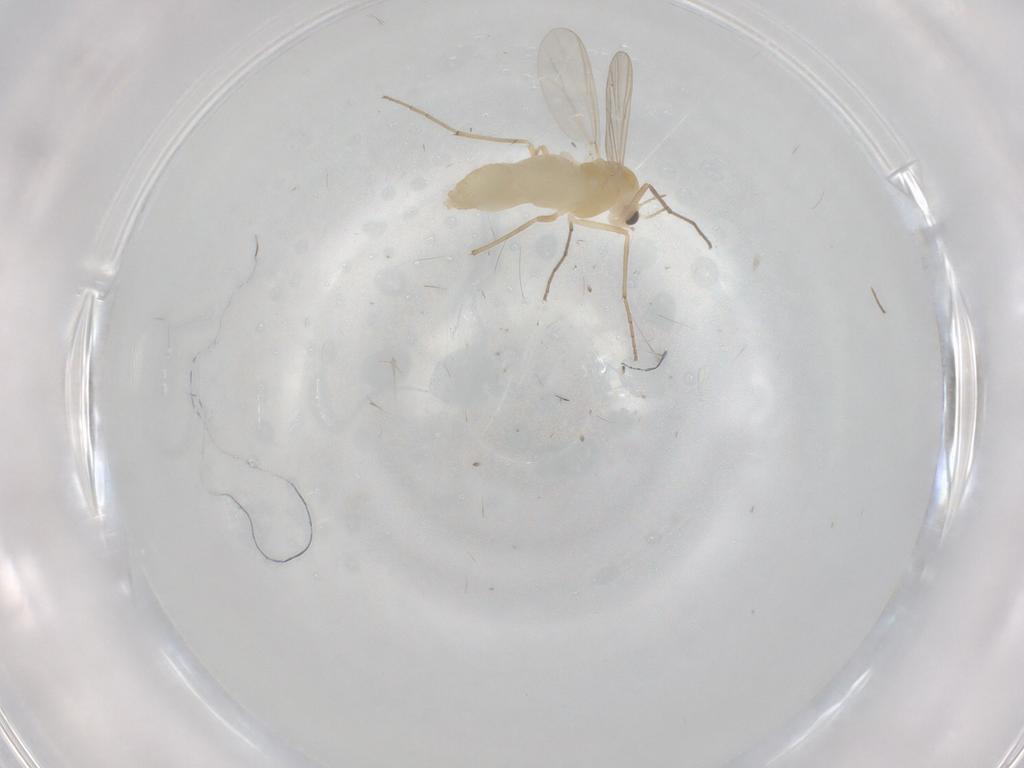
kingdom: Animalia
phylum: Arthropoda
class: Insecta
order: Diptera
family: Chironomidae
